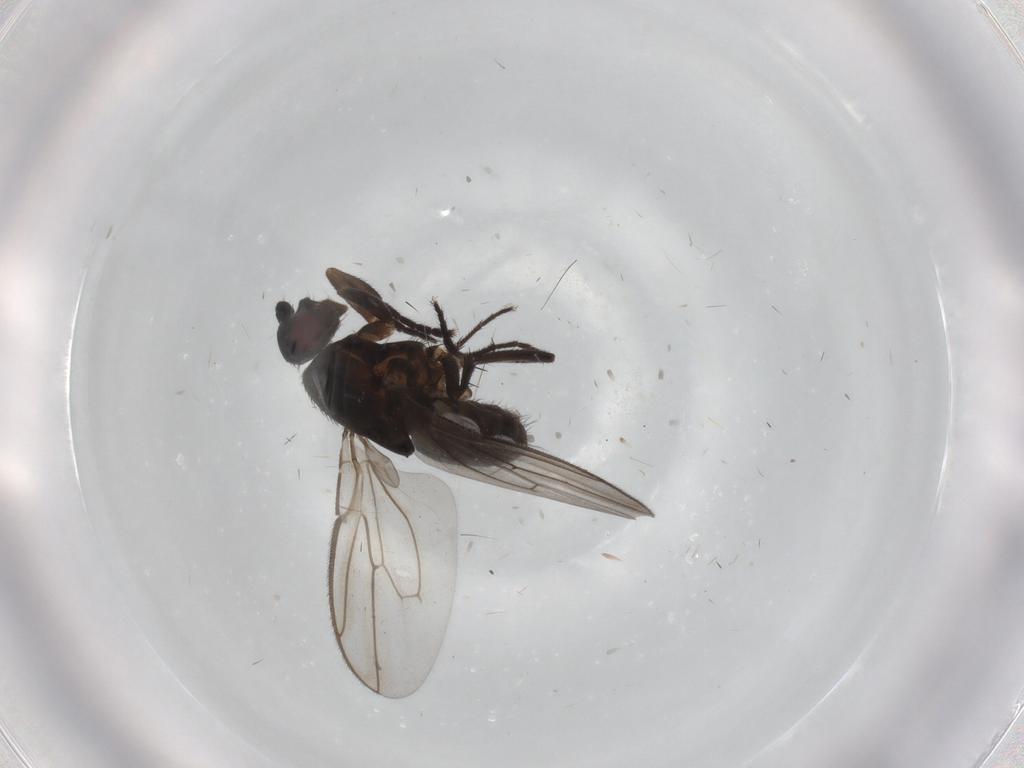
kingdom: Animalia
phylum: Arthropoda
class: Insecta
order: Diptera
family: Sphaeroceridae
